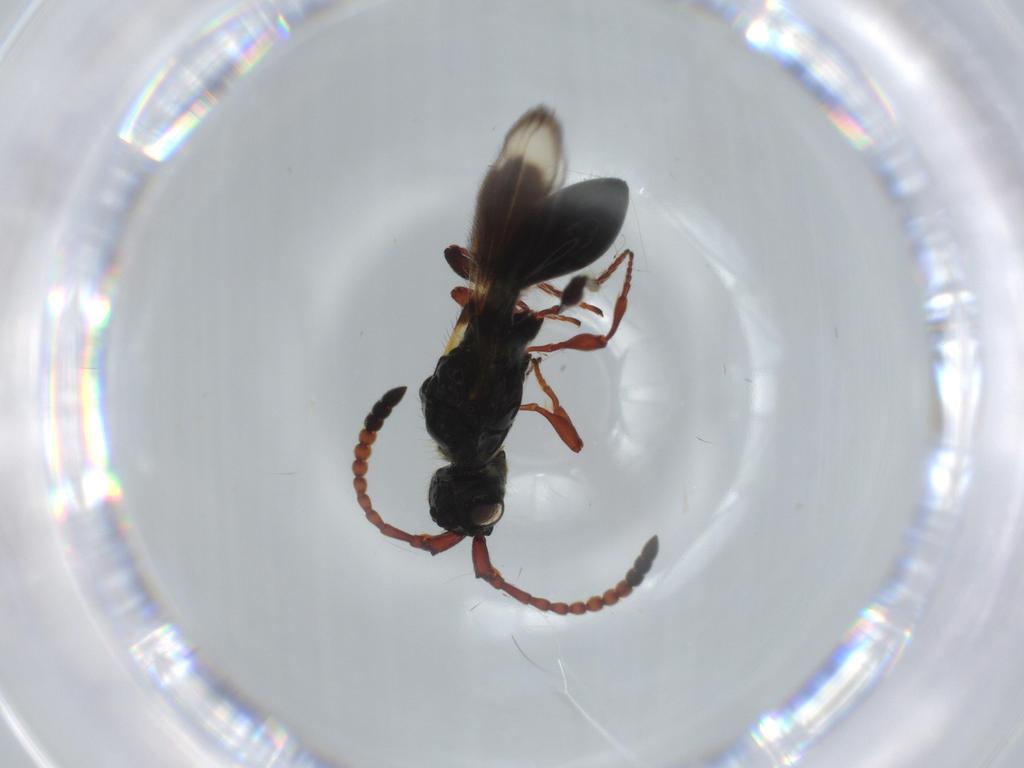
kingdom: Animalia
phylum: Arthropoda
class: Insecta
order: Hymenoptera
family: Diapriidae
